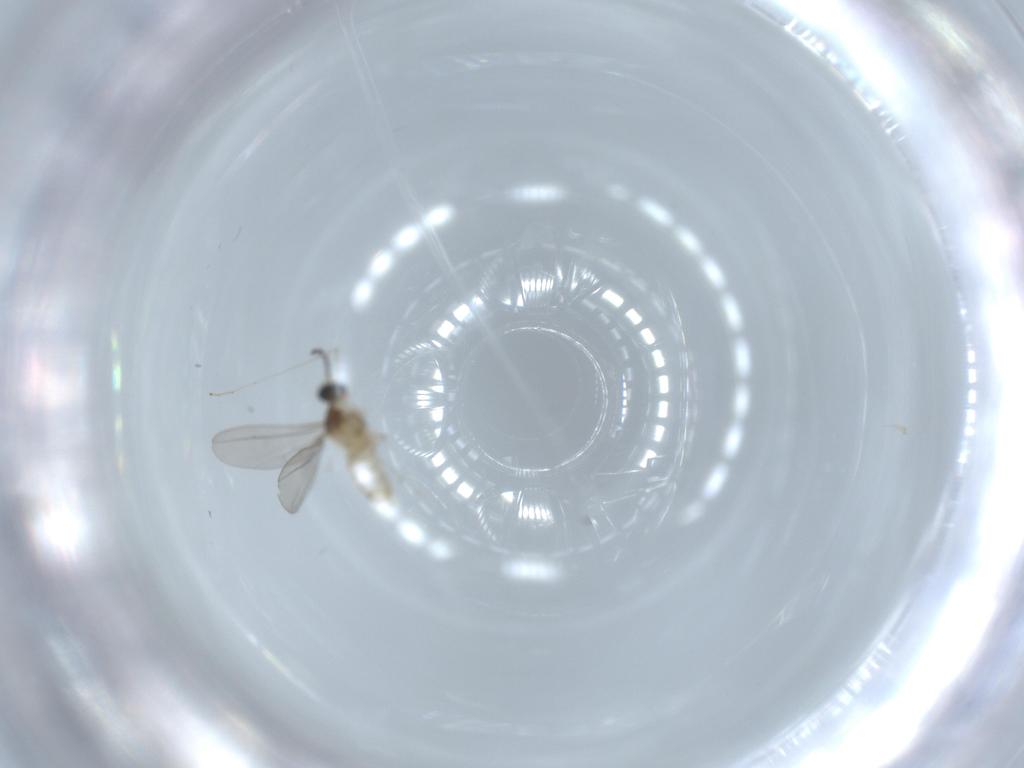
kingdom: Animalia
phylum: Arthropoda
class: Insecta
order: Diptera
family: Cecidomyiidae
